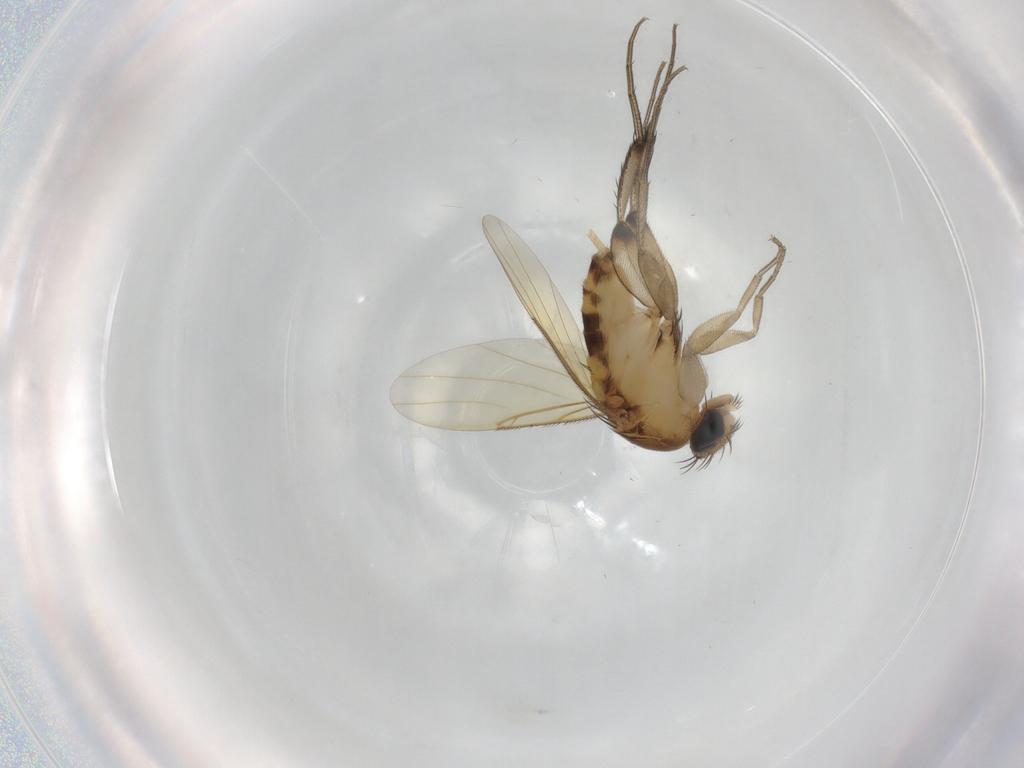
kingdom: Animalia
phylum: Arthropoda
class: Insecta
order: Diptera
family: Phoridae
